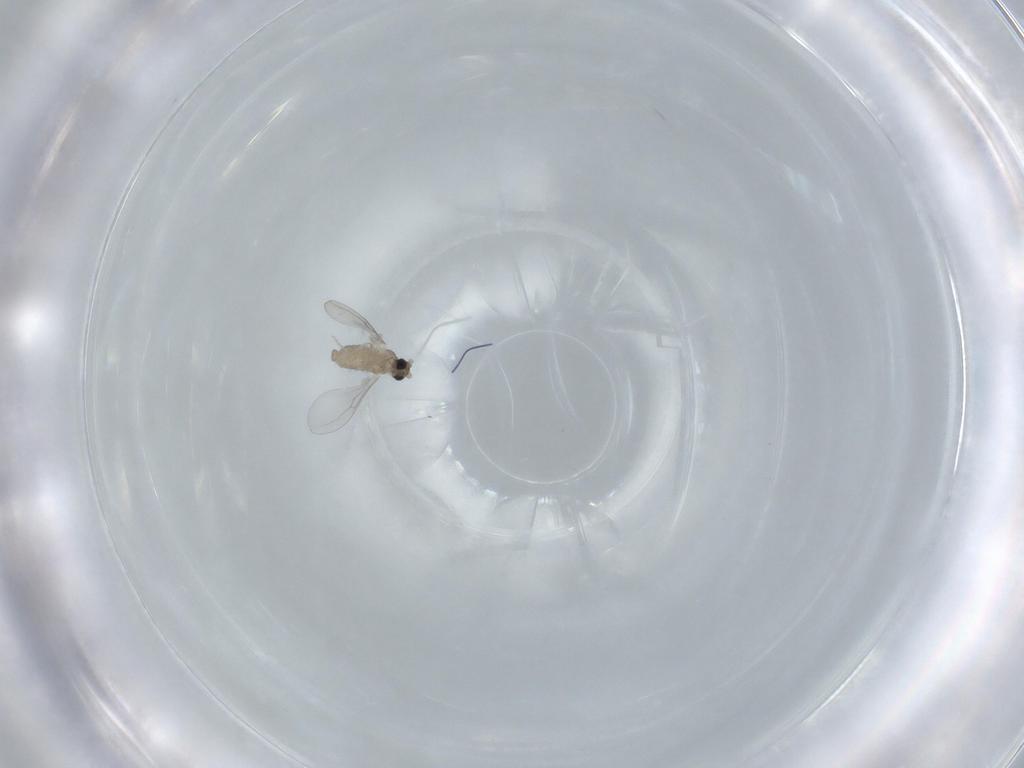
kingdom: Animalia
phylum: Arthropoda
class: Insecta
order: Diptera
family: Cecidomyiidae
